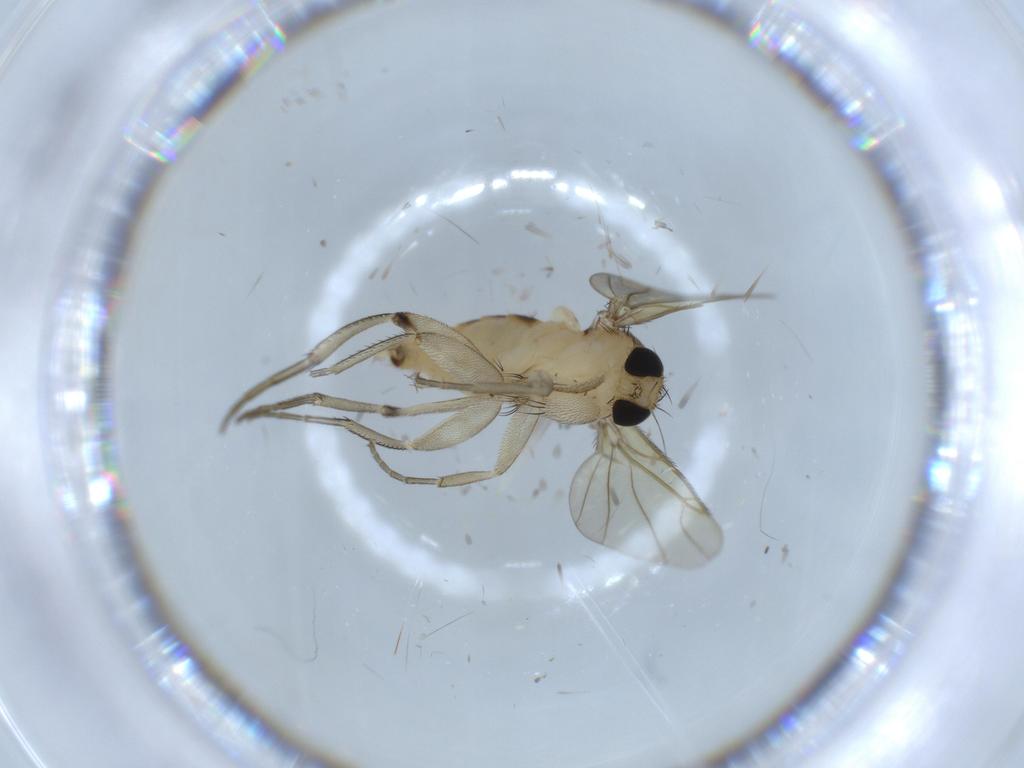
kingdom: Animalia
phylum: Arthropoda
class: Insecta
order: Diptera
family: Sciaridae
